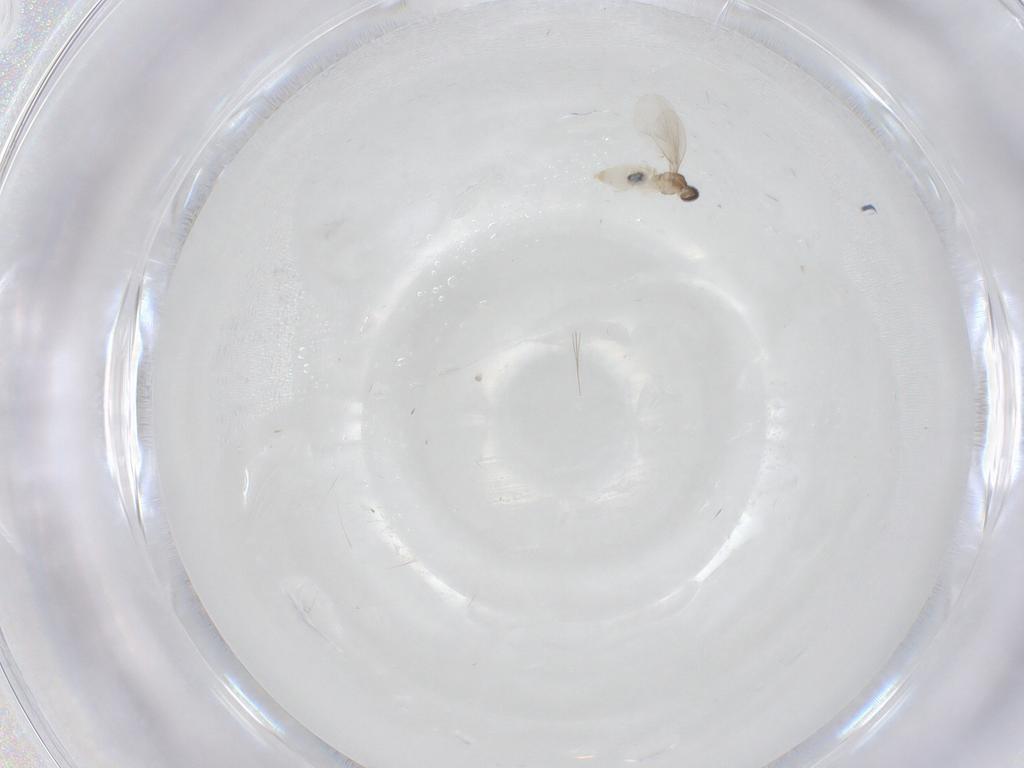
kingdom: Animalia
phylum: Arthropoda
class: Insecta
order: Diptera
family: Cecidomyiidae
